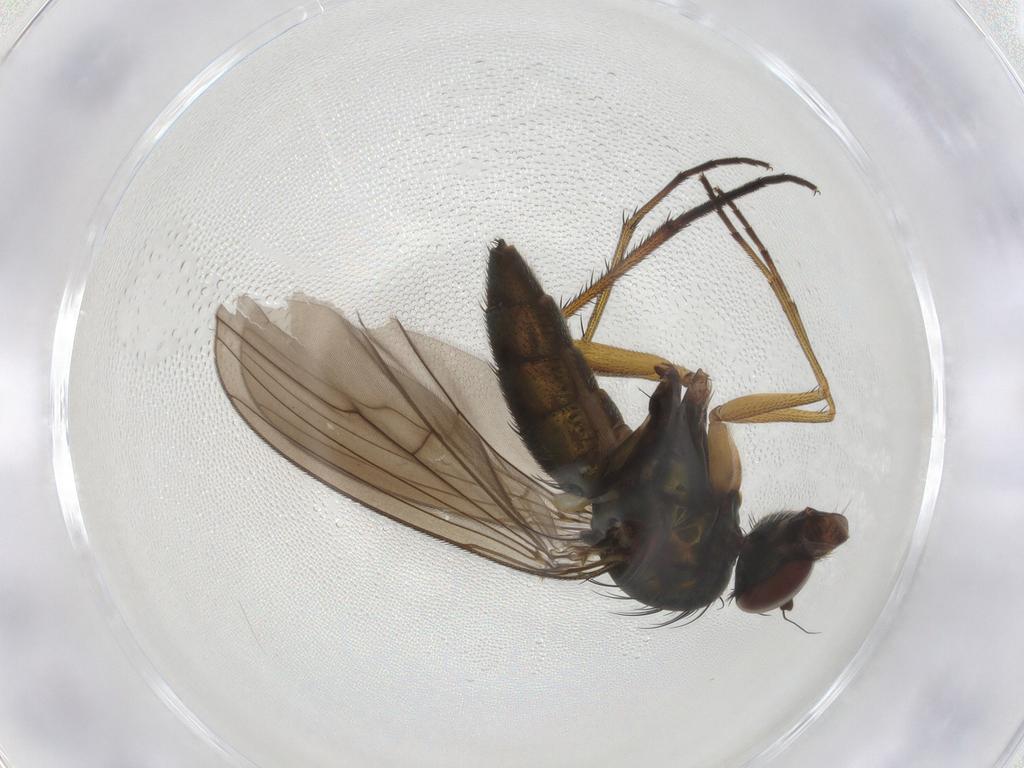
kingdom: Animalia
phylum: Arthropoda
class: Insecta
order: Diptera
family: Dolichopodidae
